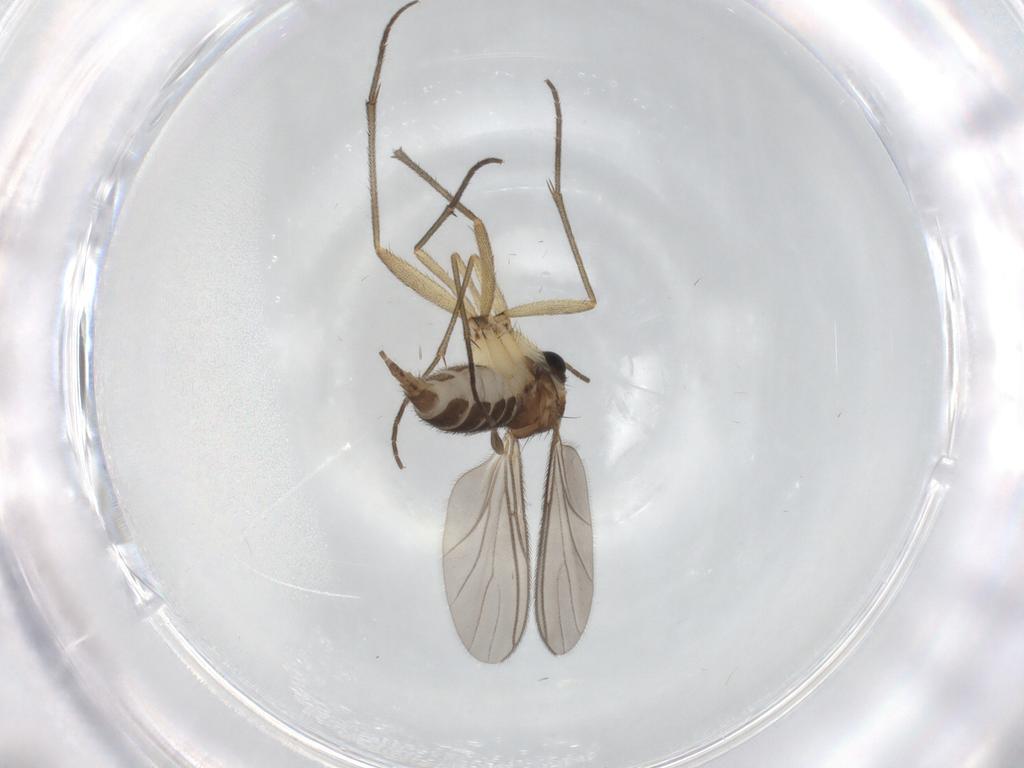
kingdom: Animalia
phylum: Arthropoda
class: Insecta
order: Diptera
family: Sciaridae
